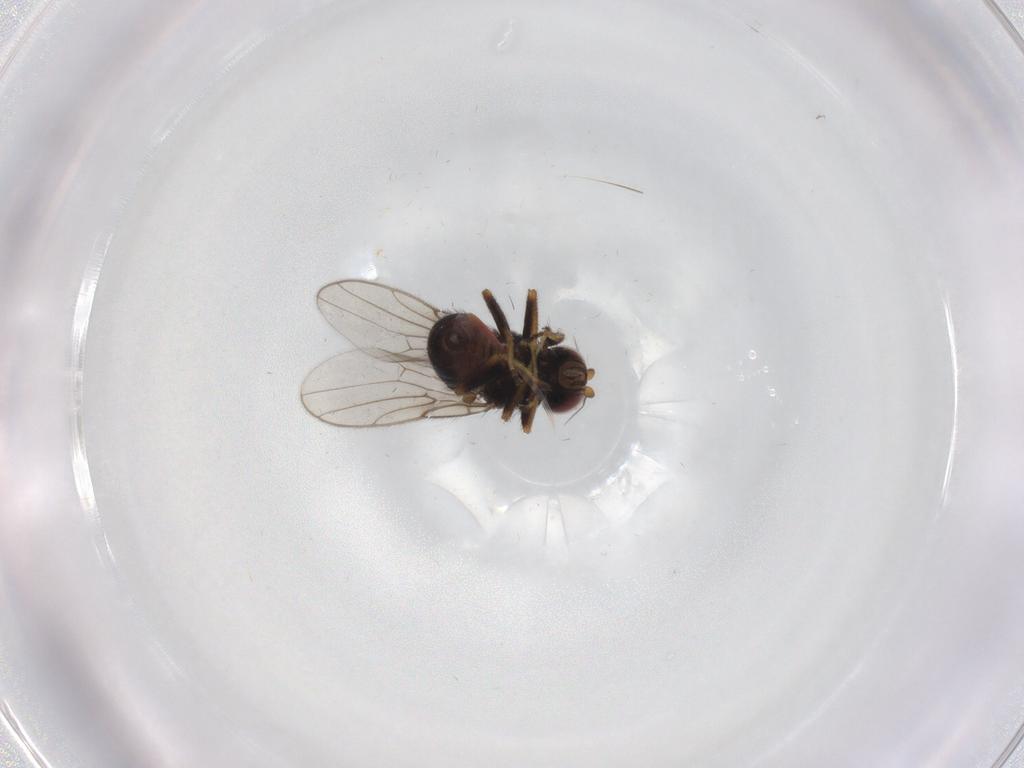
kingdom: Animalia
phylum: Arthropoda
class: Insecta
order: Diptera
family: Chloropidae
